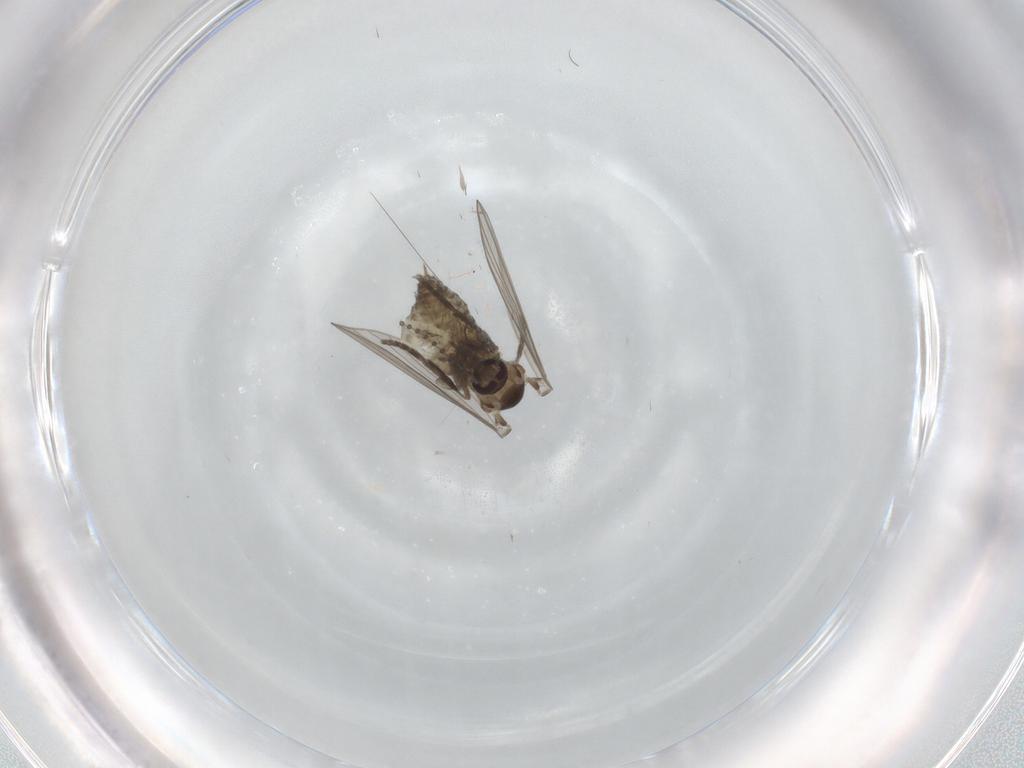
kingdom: Animalia
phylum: Arthropoda
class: Insecta
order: Diptera
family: Psychodidae
